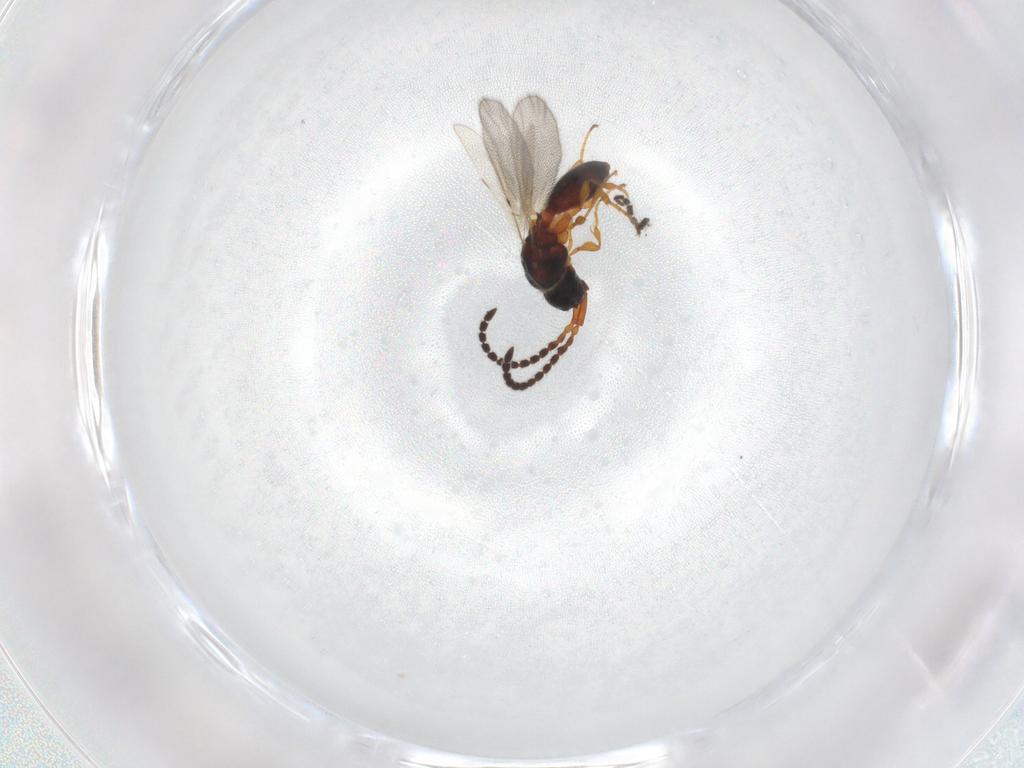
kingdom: Animalia
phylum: Arthropoda
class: Insecta
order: Hymenoptera
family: Diapriidae
